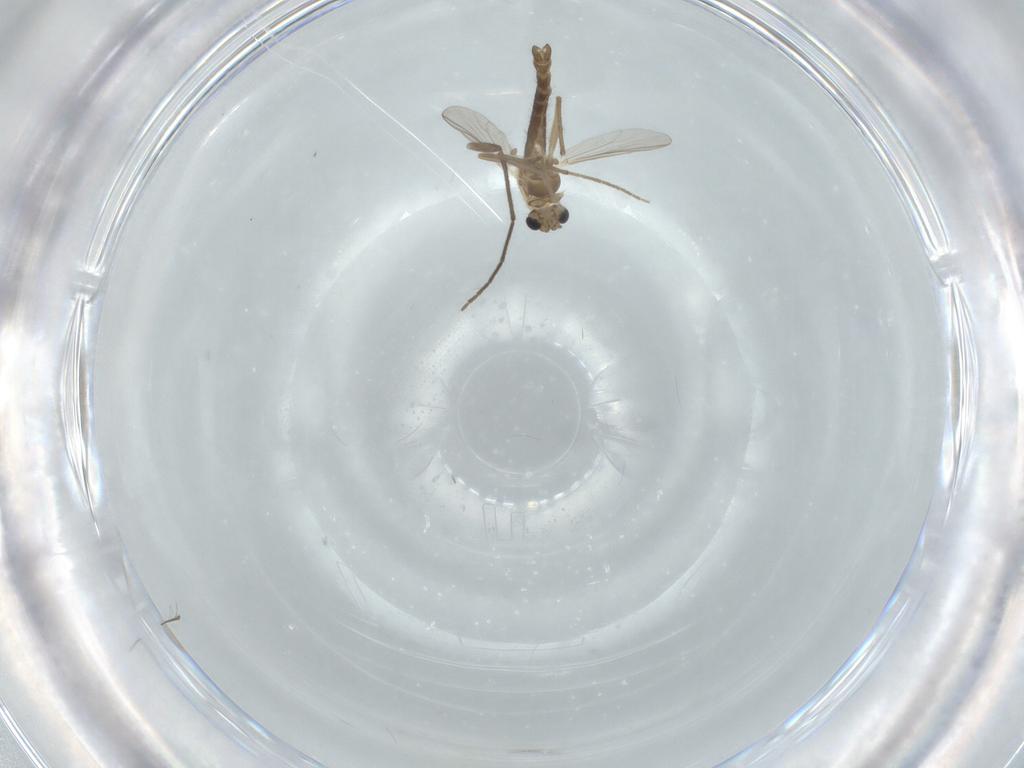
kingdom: Animalia
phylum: Arthropoda
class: Insecta
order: Diptera
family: Chironomidae
